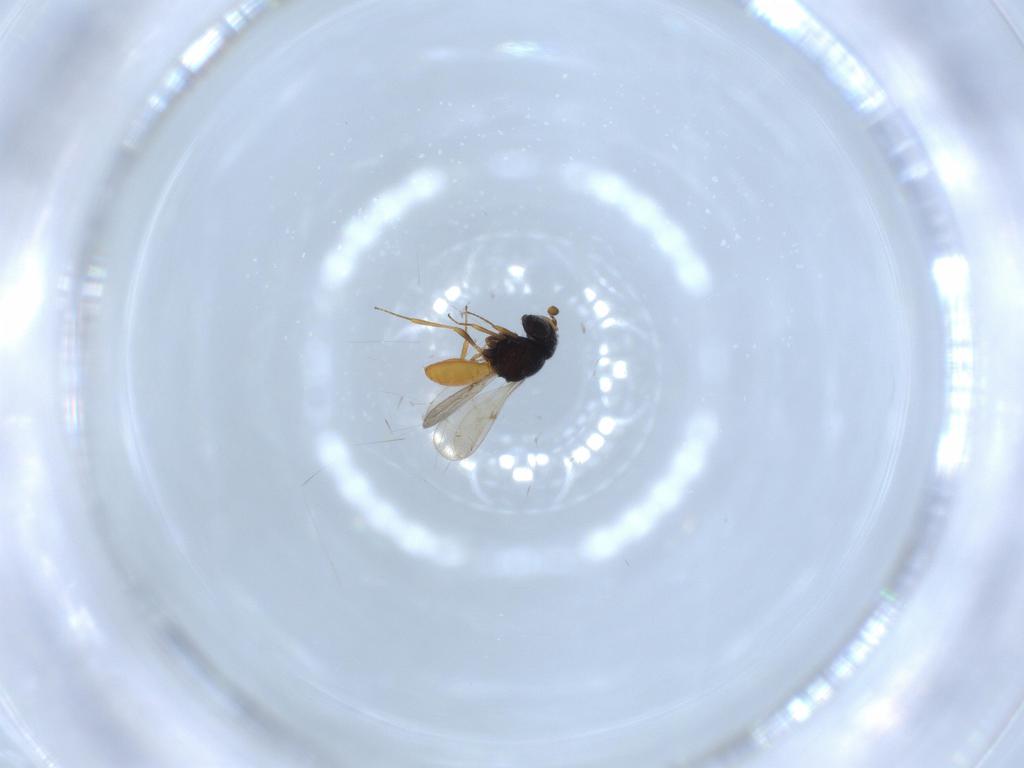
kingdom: Animalia
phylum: Arthropoda
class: Insecta
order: Hymenoptera
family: Scelionidae
